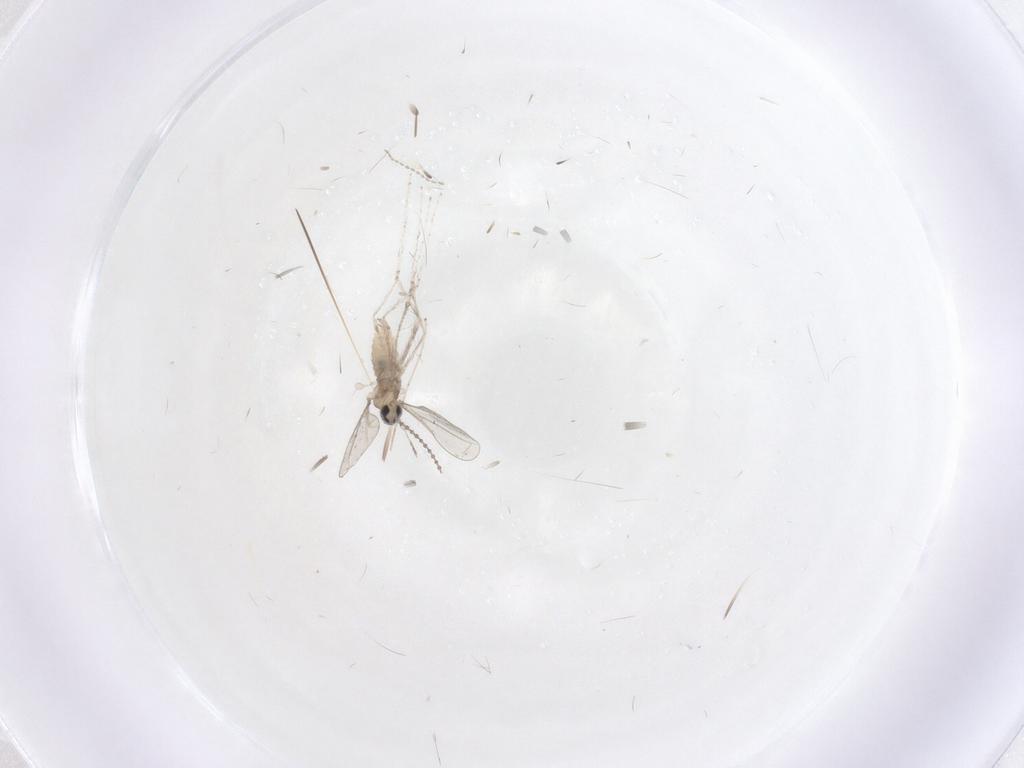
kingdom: Animalia
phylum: Arthropoda
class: Insecta
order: Diptera
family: Cecidomyiidae
